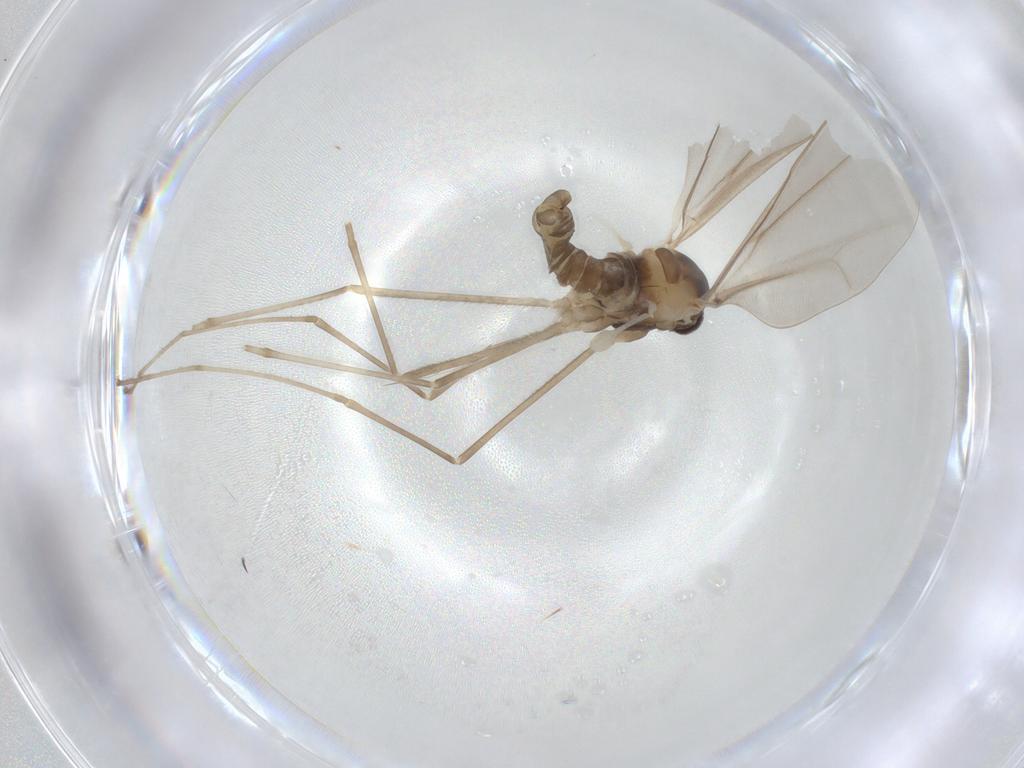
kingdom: Animalia
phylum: Arthropoda
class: Insecta
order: Diptera
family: Cecidomyiidae
